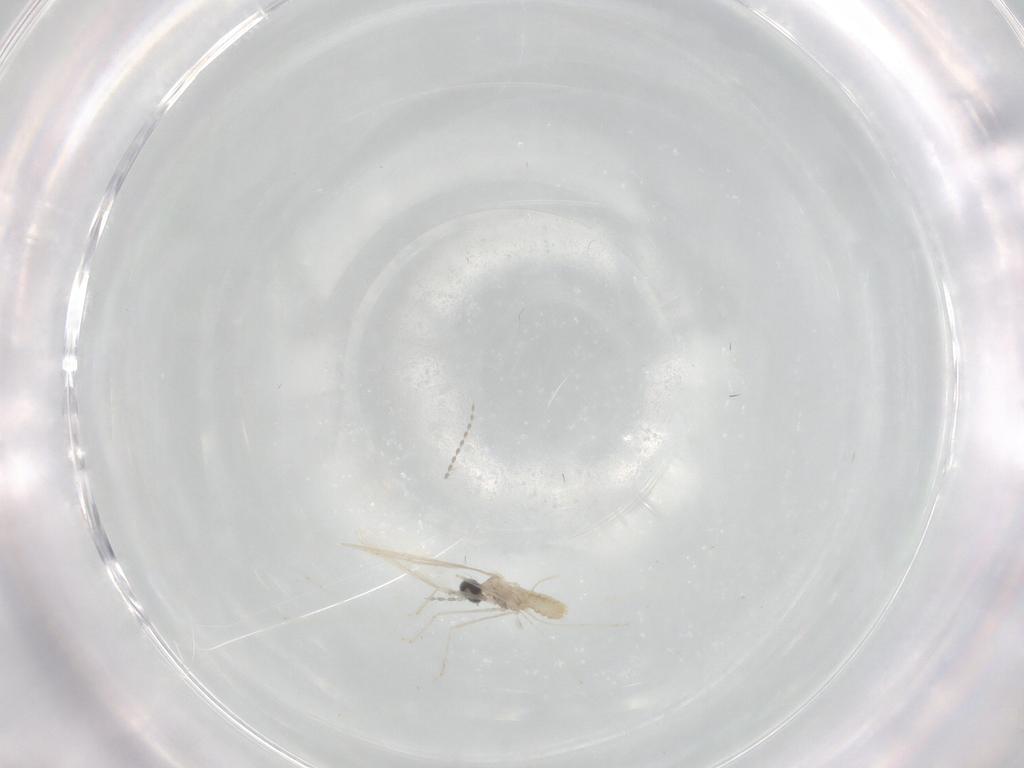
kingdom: Animalia
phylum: Arthropoda
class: Insecta
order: Diptera
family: Cecidomyiidae
